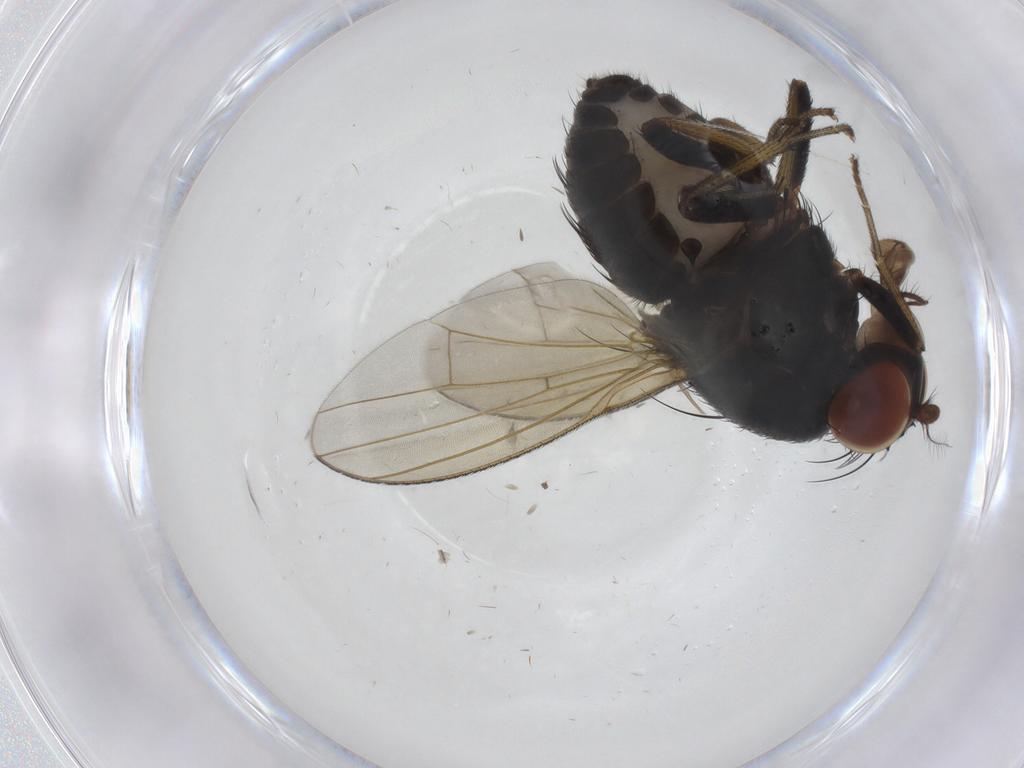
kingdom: Animalia
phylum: Arthropoda
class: Insecta
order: Diptera
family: Lauxaniidae
